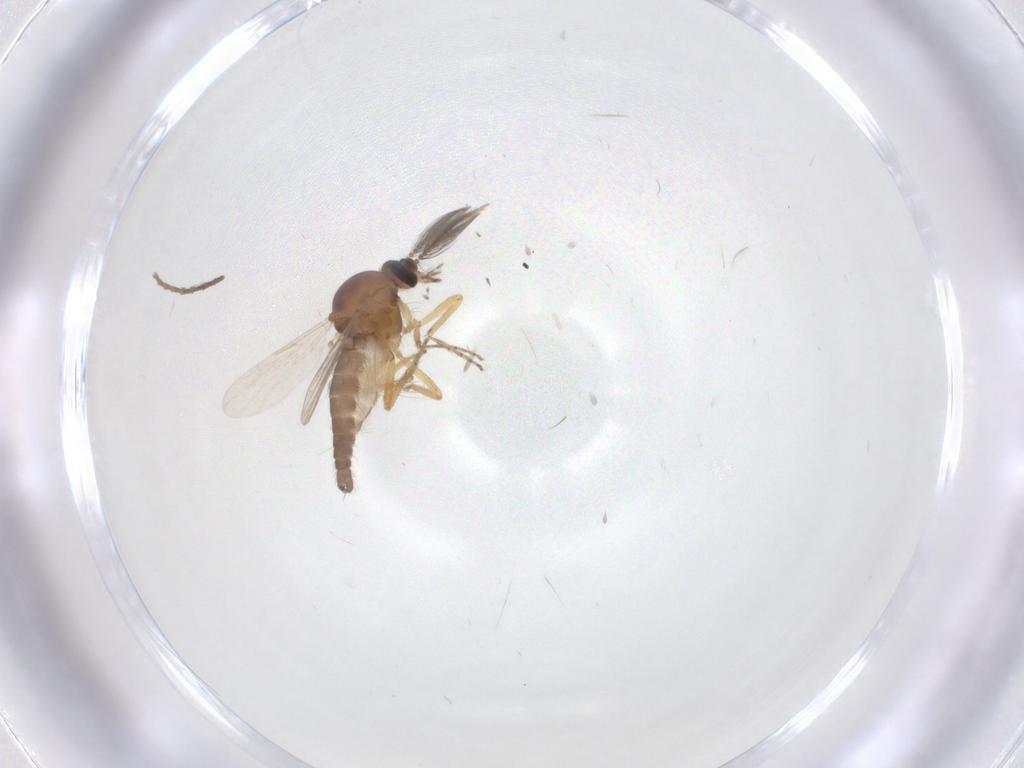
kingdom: Animalia
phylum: Arthropoda
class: Insecta
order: Diptera
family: Ceratopogonidae
